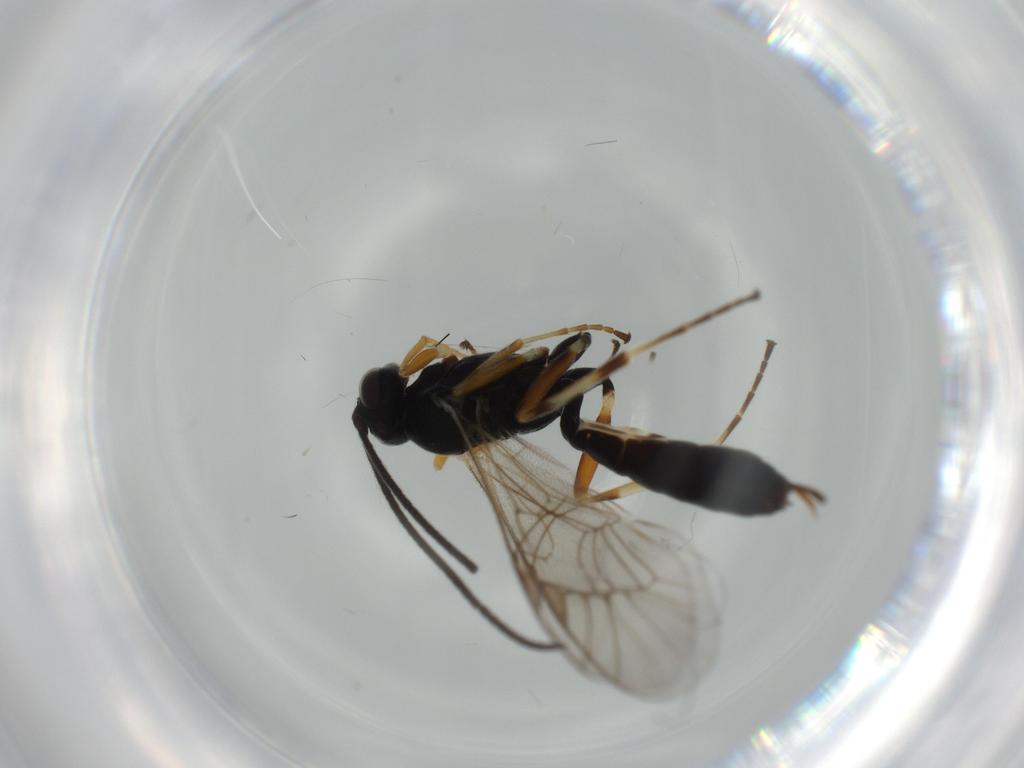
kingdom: Animalia
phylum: Arthropoda
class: Insecta
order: Hymenoptera
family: Ichneumonidae
